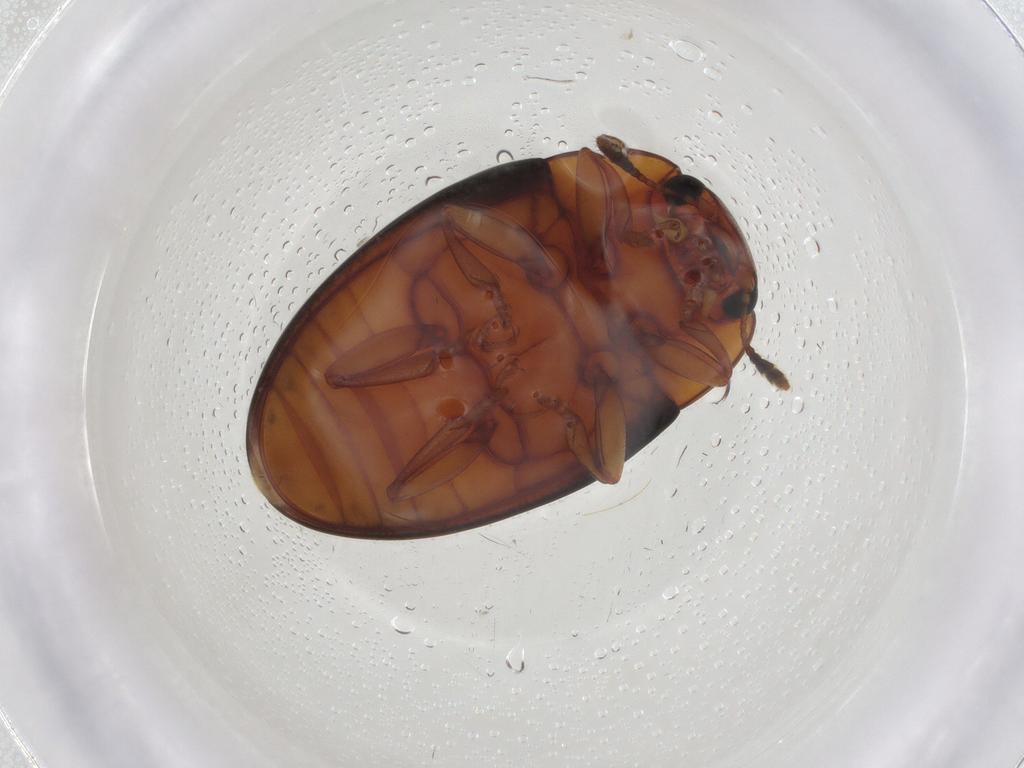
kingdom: Animalia
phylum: Arthropoda
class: Insecta
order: Coleoptera
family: Erotylidae
